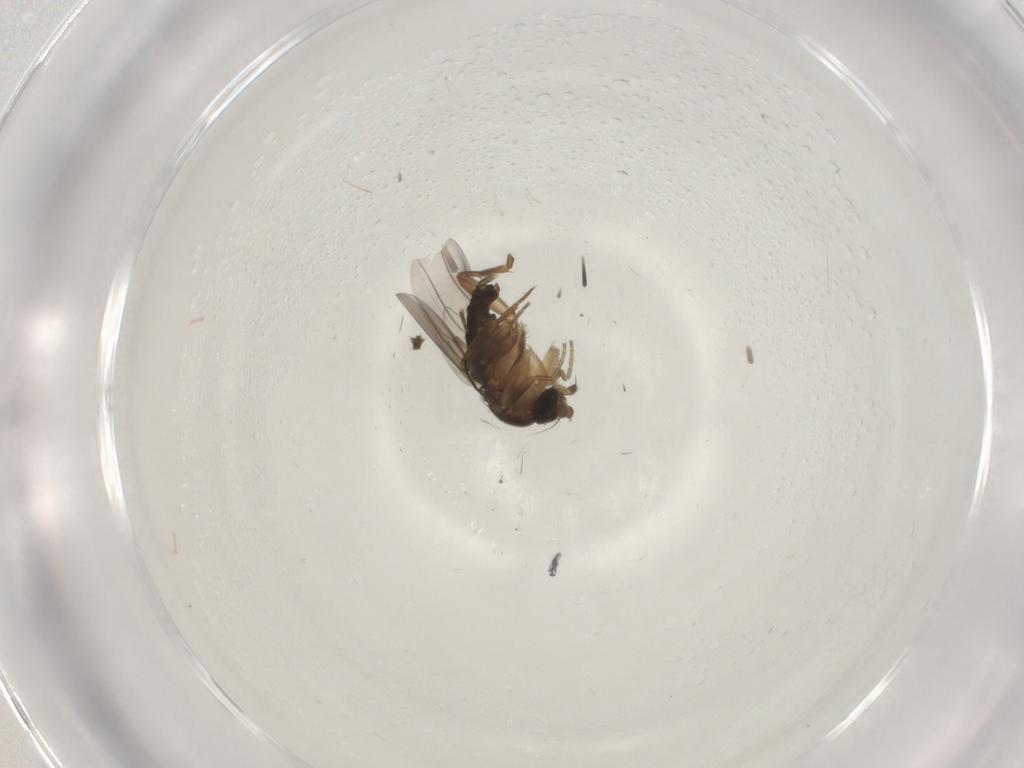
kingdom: Animalia
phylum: Arthropoda
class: Insecta
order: Diptera
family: Phoridae
